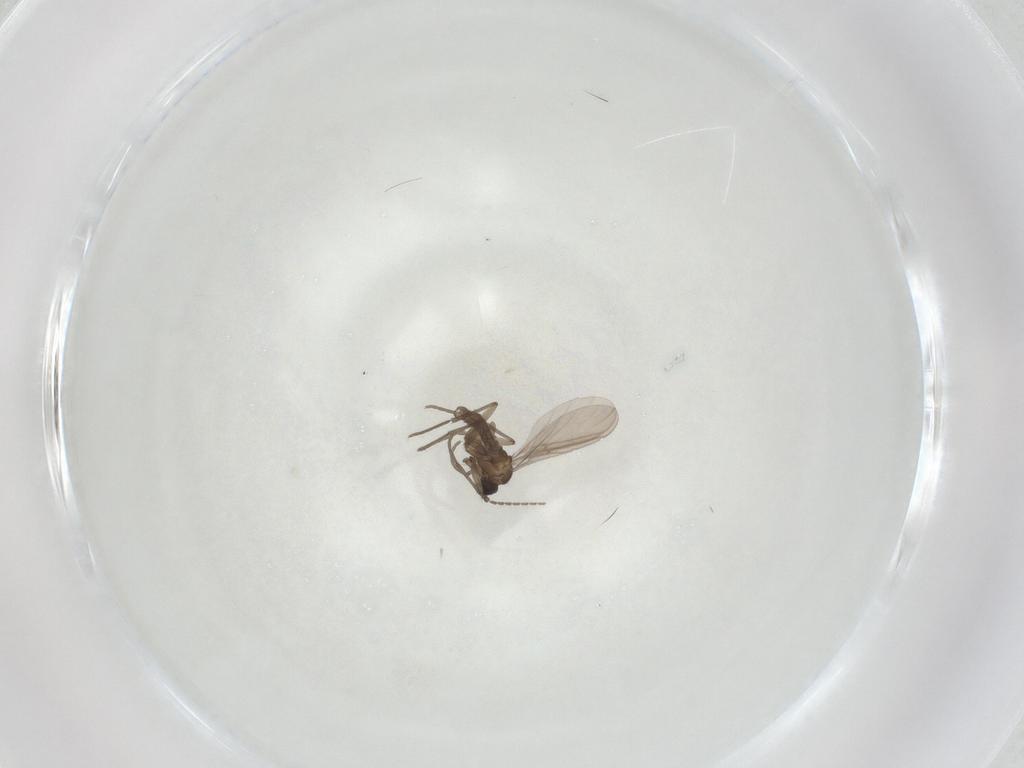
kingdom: Animalia
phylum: Arthropoda
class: Insecta
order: Diptera
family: Sciaridae
